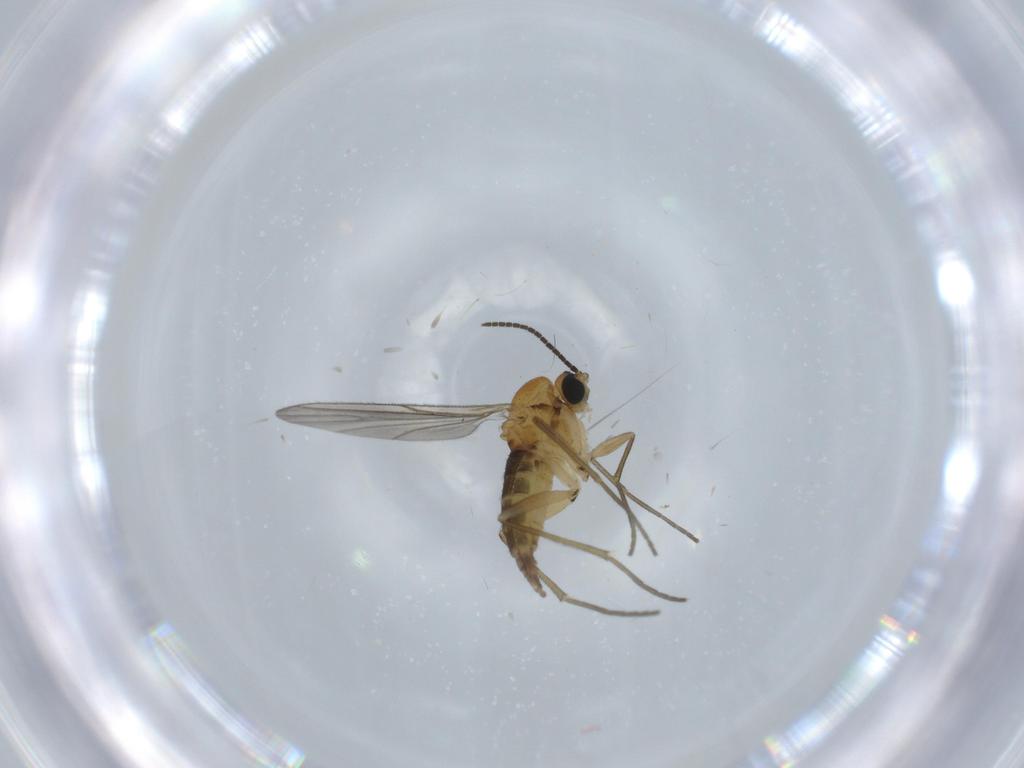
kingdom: Animalia
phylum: Arthropoda
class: Insecta
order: Diptera
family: Sciaridae
